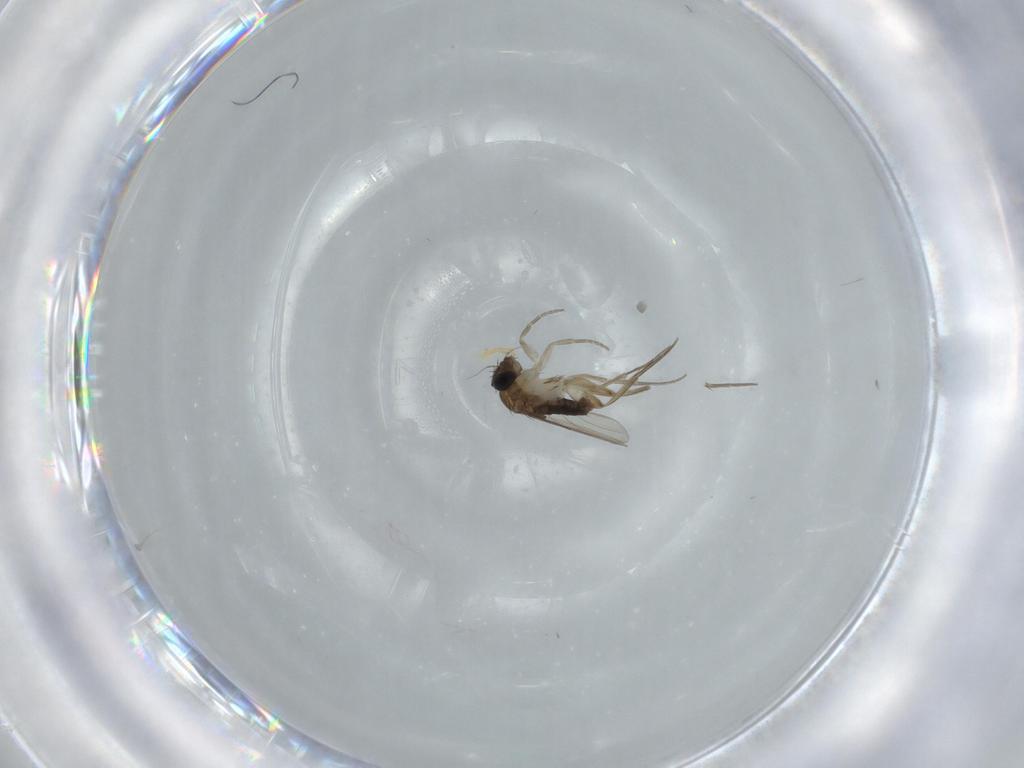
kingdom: Animalia
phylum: Arthropoda
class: Insecta
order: Diptera
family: Phoridae
